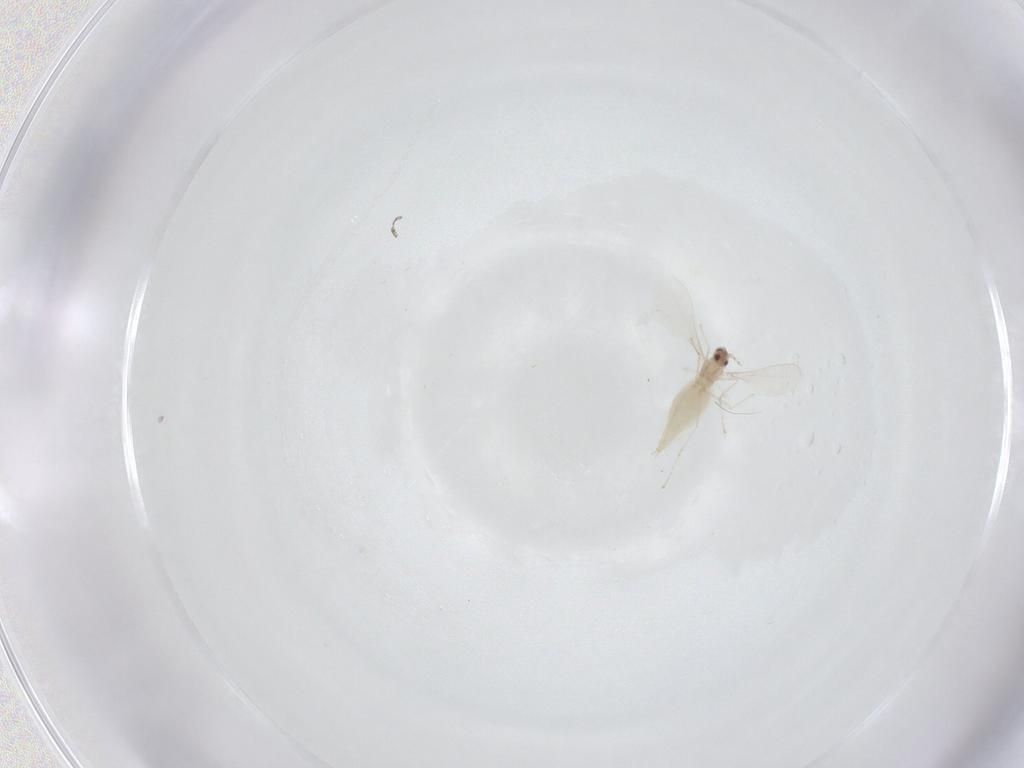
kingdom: Animalia
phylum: Arthropoda
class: Insecta
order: Diptera
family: Cecidomyiidae
